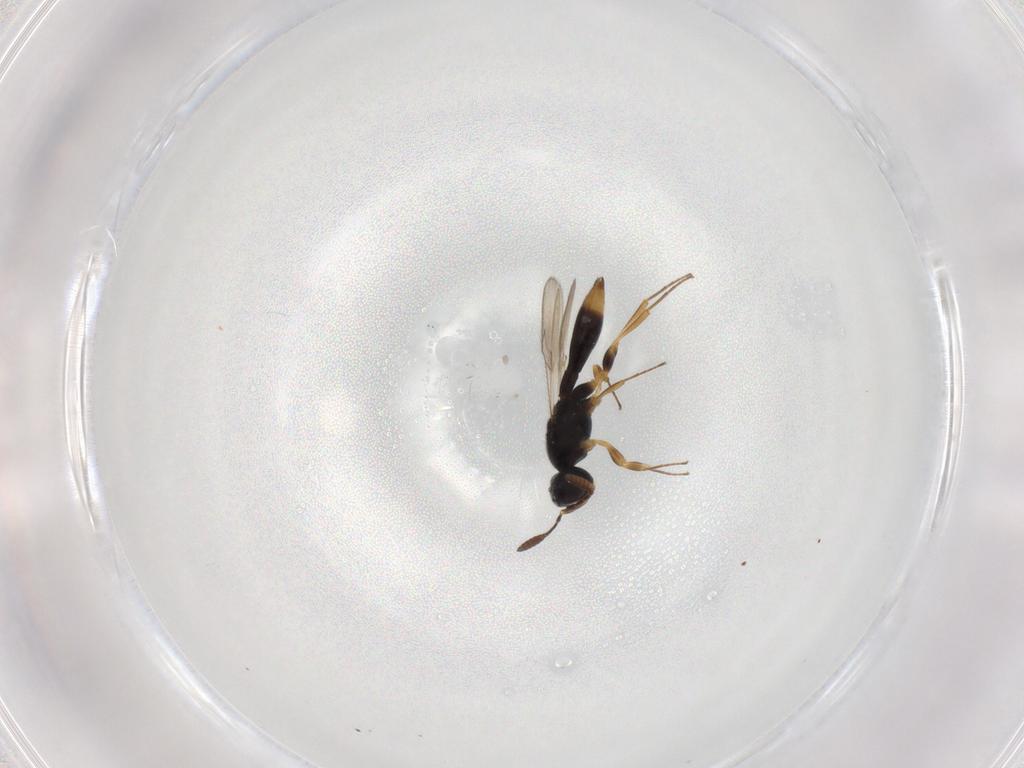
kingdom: Animalia
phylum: Arthropoda
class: Insecta
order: Hymenoptera
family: Scelionidae
